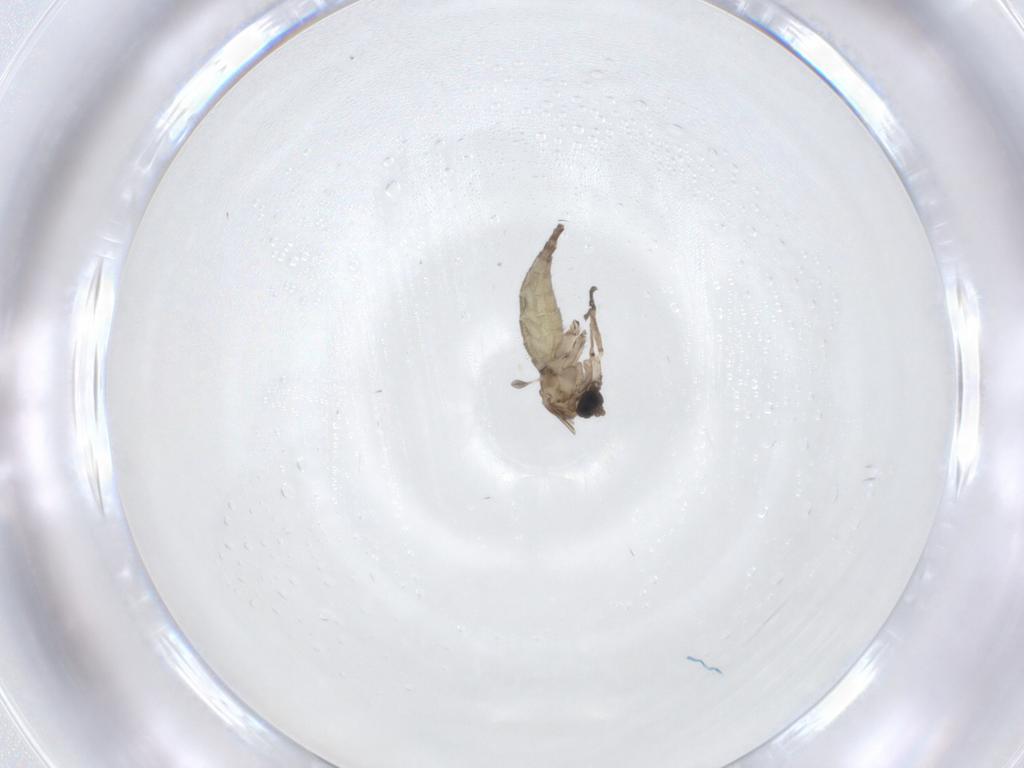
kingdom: Animalia
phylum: Arthropoda
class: Insecta
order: Diptera
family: Sciaridae
